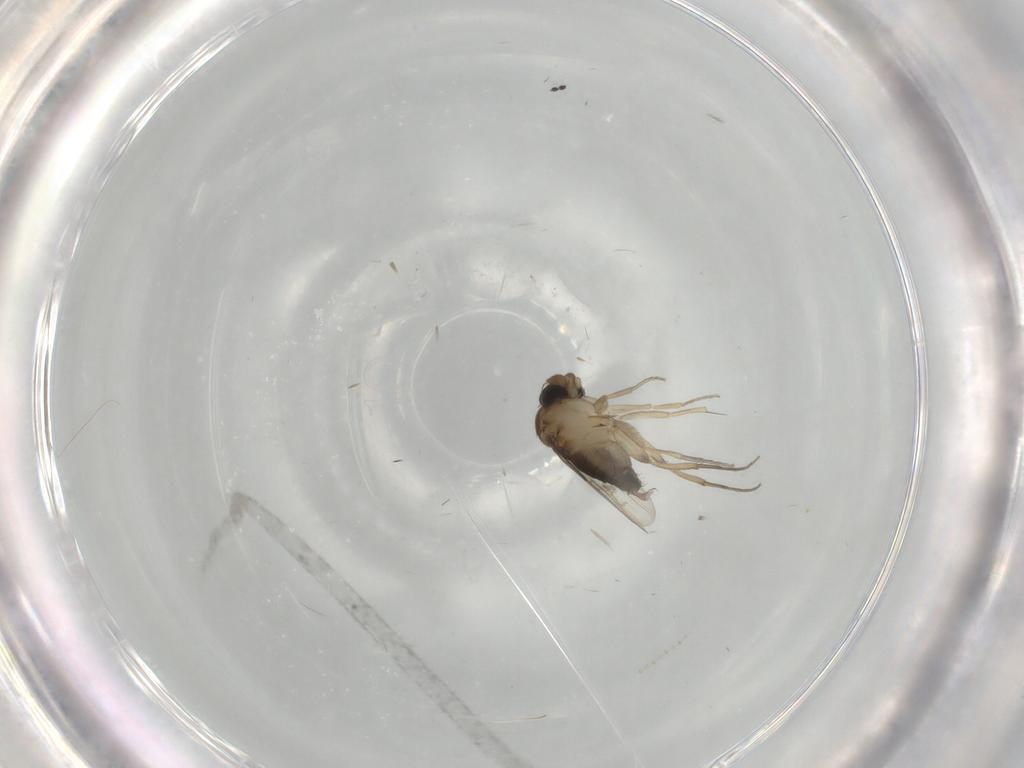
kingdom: Animalia
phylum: Arthropoda
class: Insecta
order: Diptera
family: Phoridae
